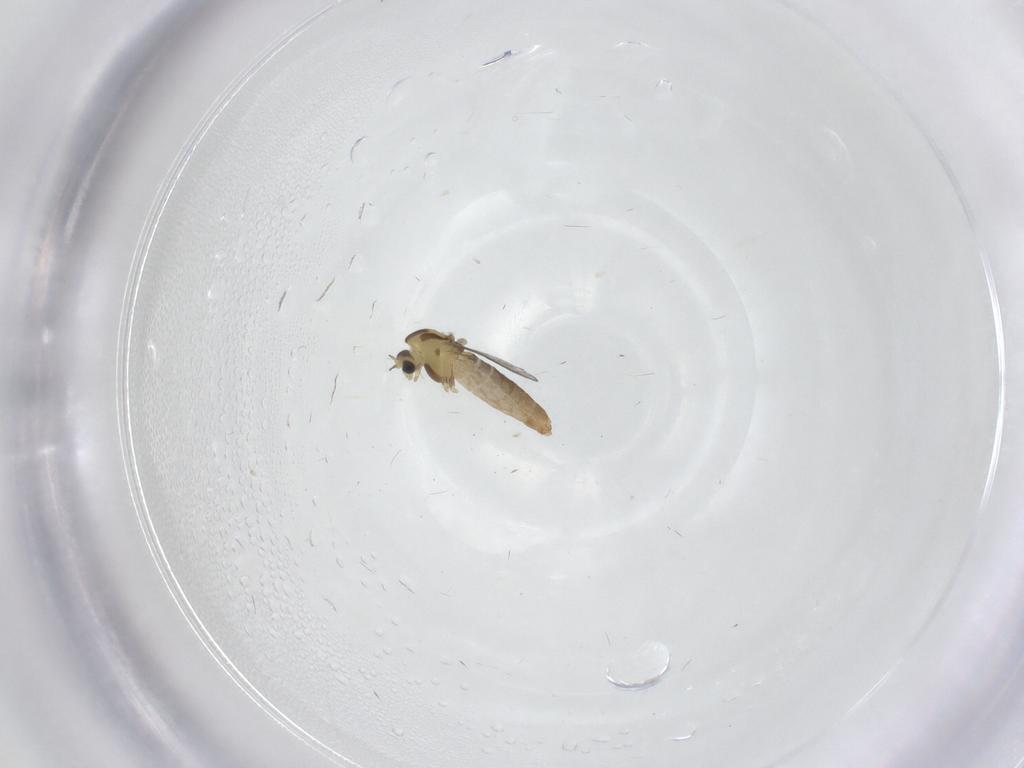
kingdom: Animalia
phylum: Arthropoda
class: Insecta
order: Diptera
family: Chironomidae
